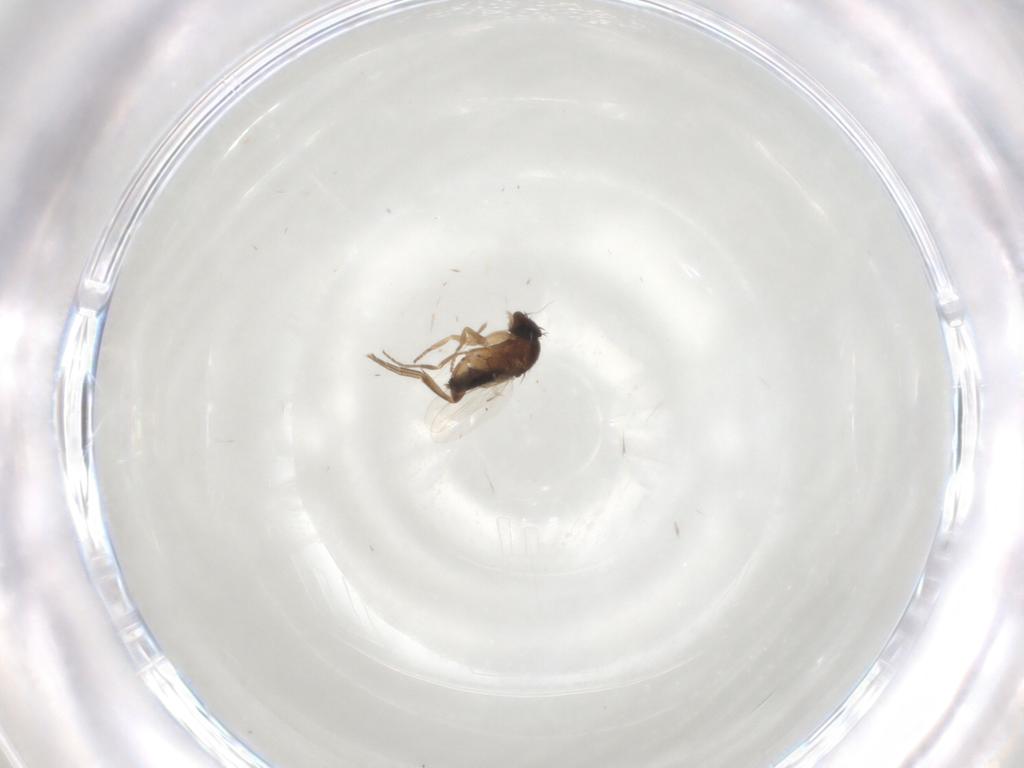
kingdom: Animalia
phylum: Arthropoda
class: Insecta
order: Diptera
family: Phoridae
